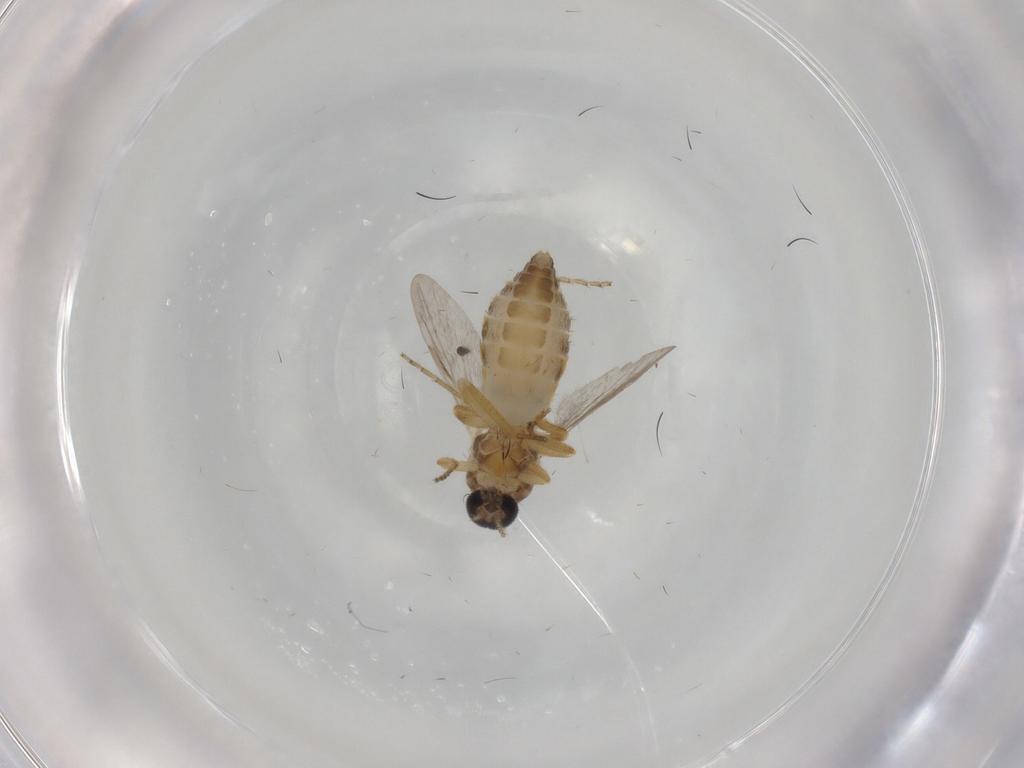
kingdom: Animalia
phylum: Arthropoda
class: Insecta
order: Diptera
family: Ceratopogonidae
